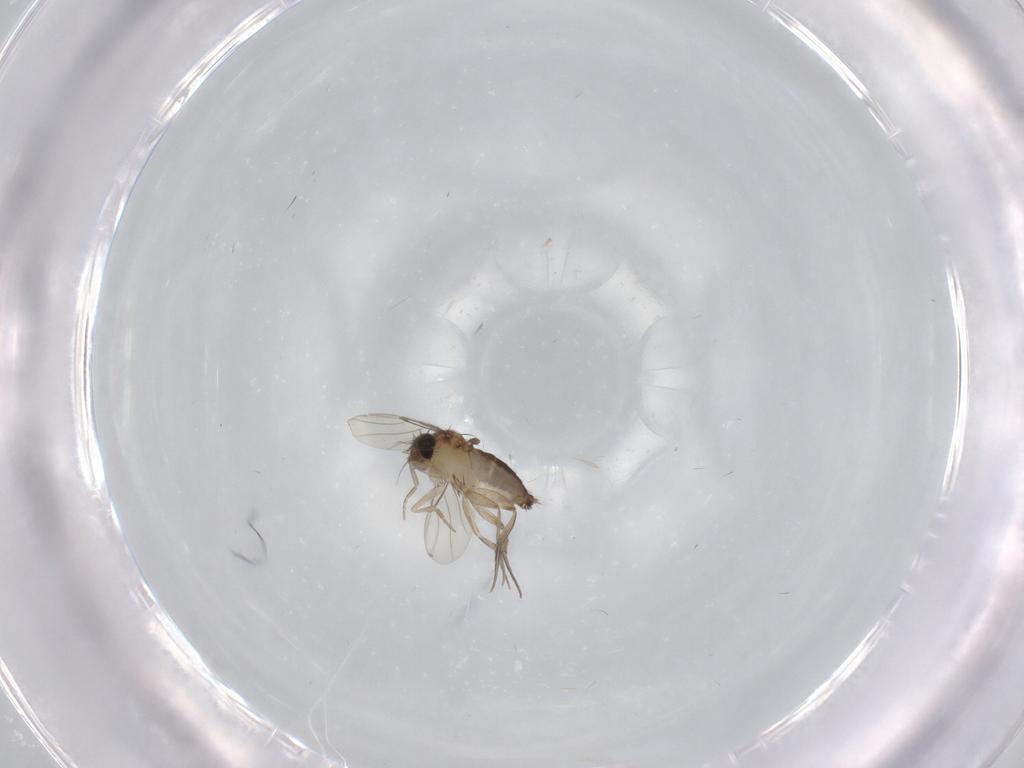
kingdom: Animalia
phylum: Arthropoda
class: Insecta
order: Diptera
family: Phoridae
